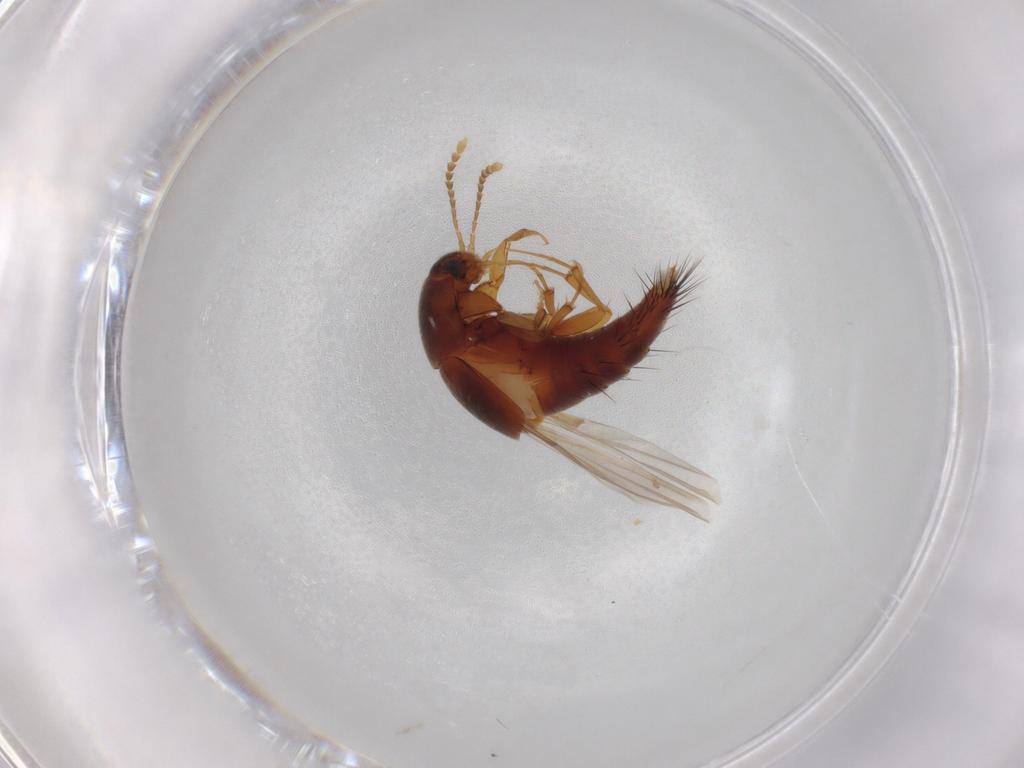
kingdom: Animalia
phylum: Arthropoda
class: Insecta
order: Coleoptera
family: Staphylinidae
